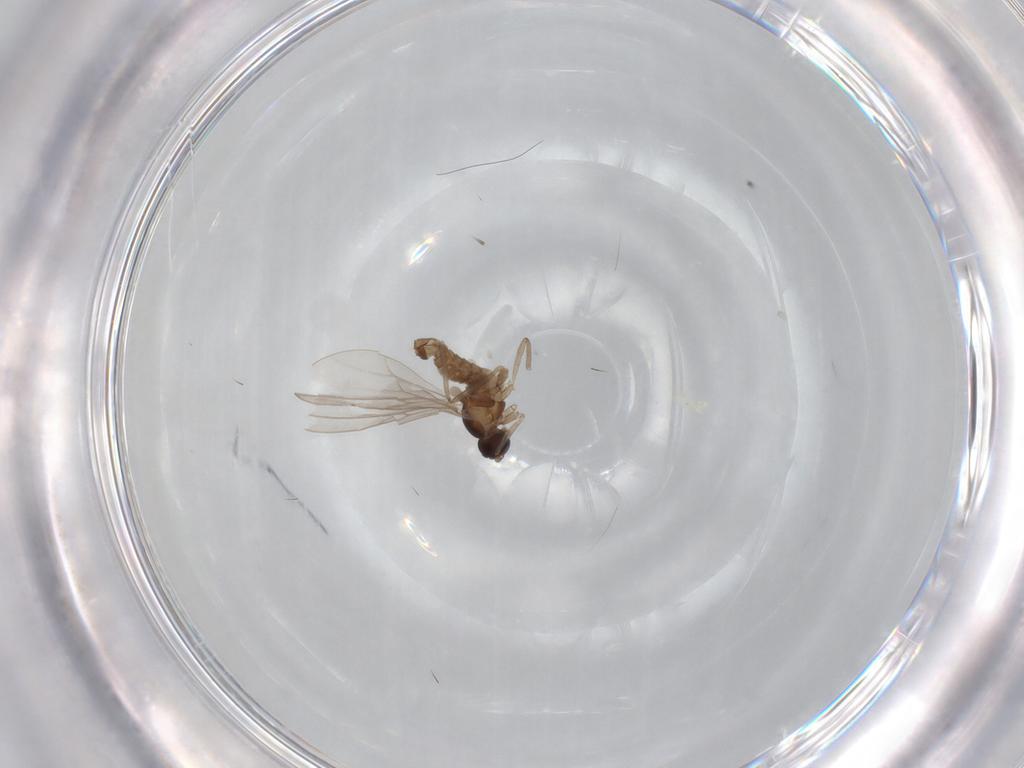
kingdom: Animalia
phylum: Arthropoda
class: Insecta
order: Diptera
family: Cecidomyiidae
